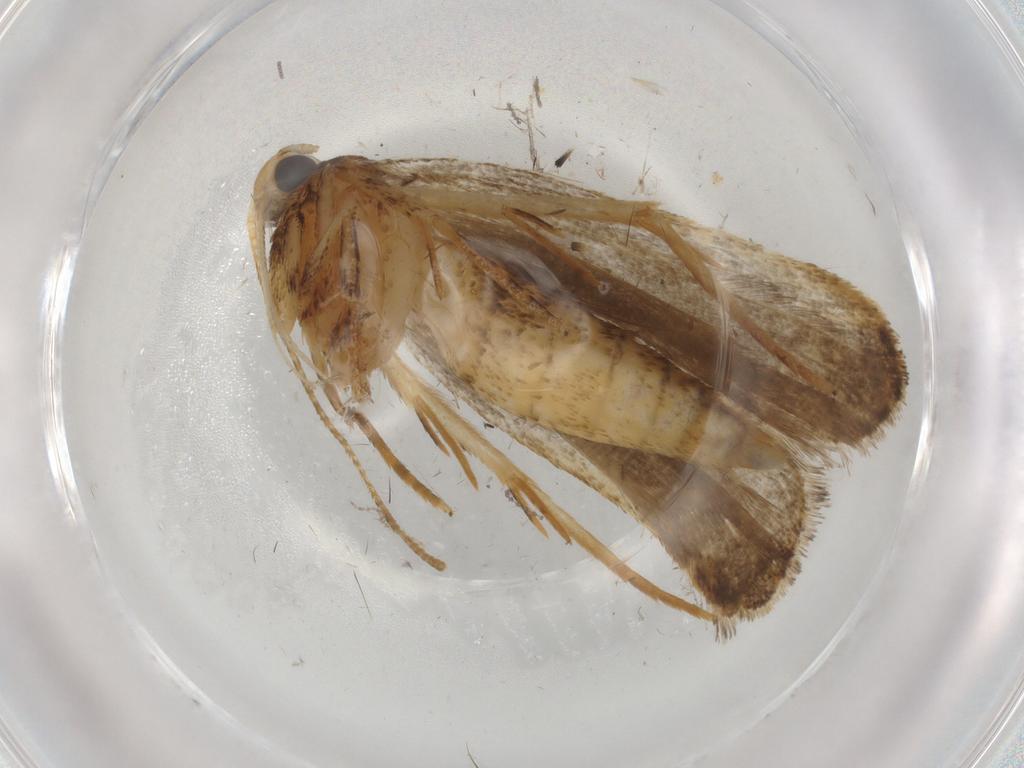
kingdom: Animalia
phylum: Arthropoda
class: Insecta
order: Lepidoptera
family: Autostichidae
